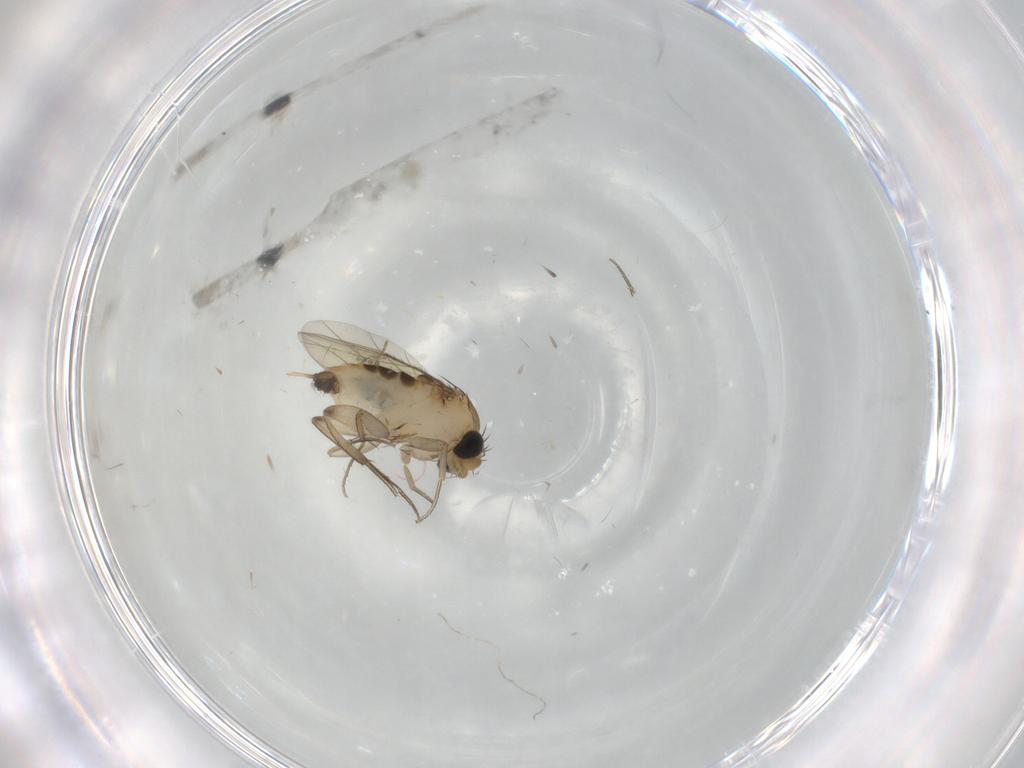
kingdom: Animalia
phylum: Arthropoda
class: Insecta
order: Diptera
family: Phoridae
